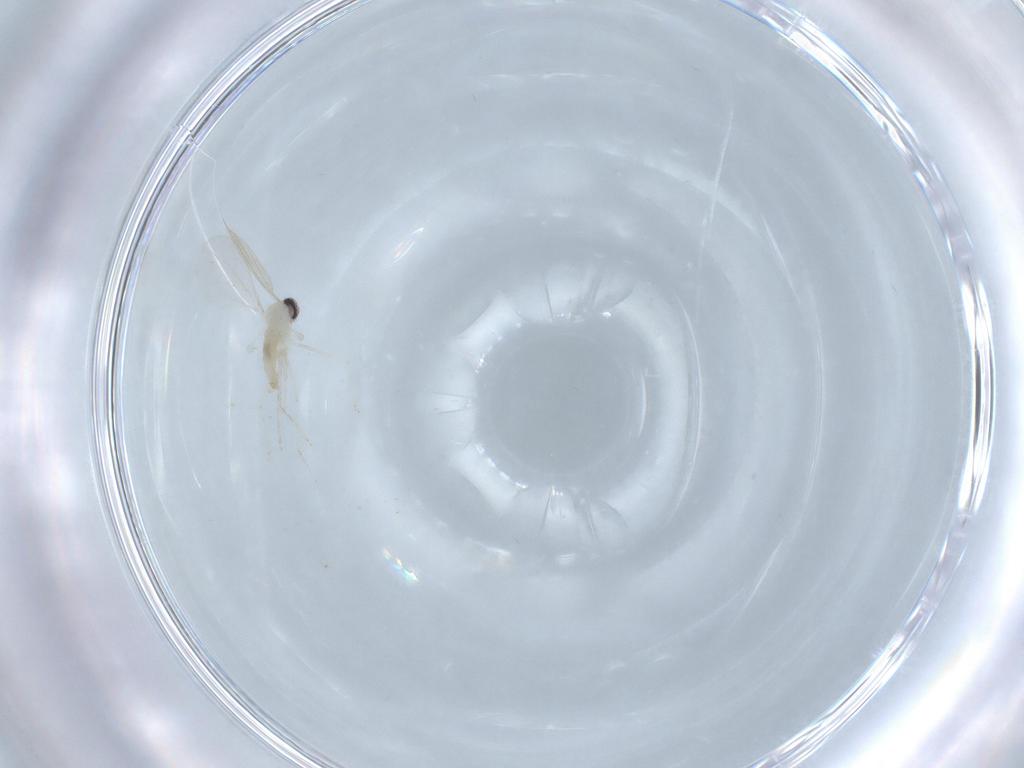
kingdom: Animalia
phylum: Arthropoda
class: Insecta
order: Diptera
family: Cecidomyiidae
